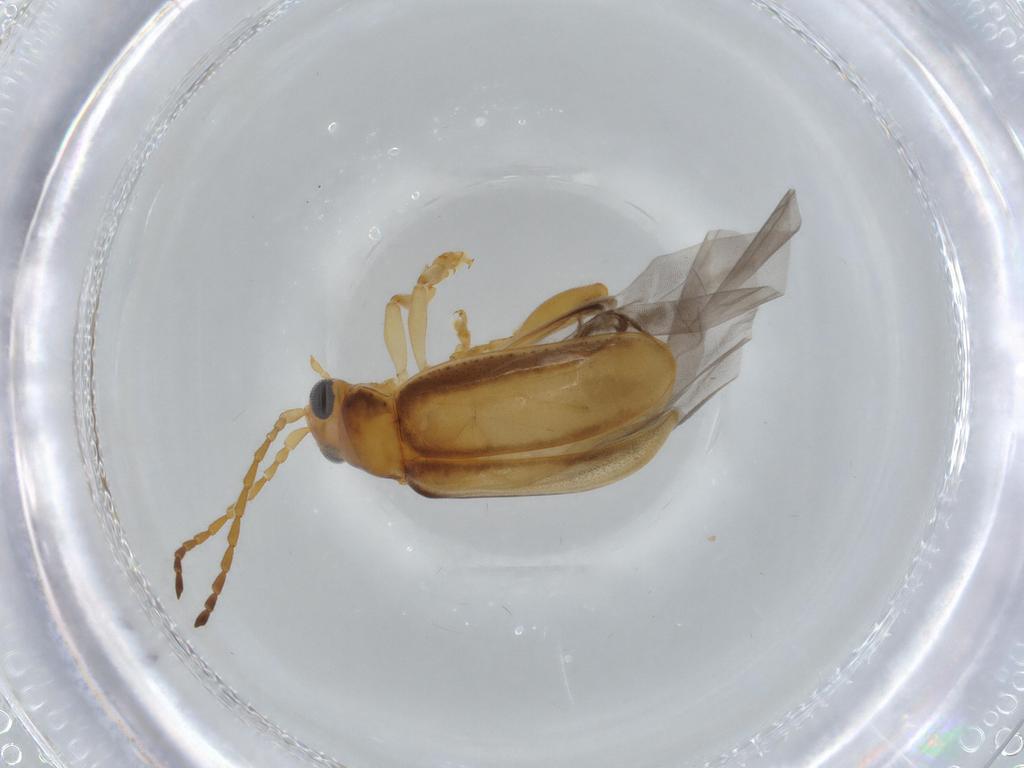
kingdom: Animalia
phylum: Arthropoda
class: Insecta
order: Coleoptera
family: Chrysomelidae
